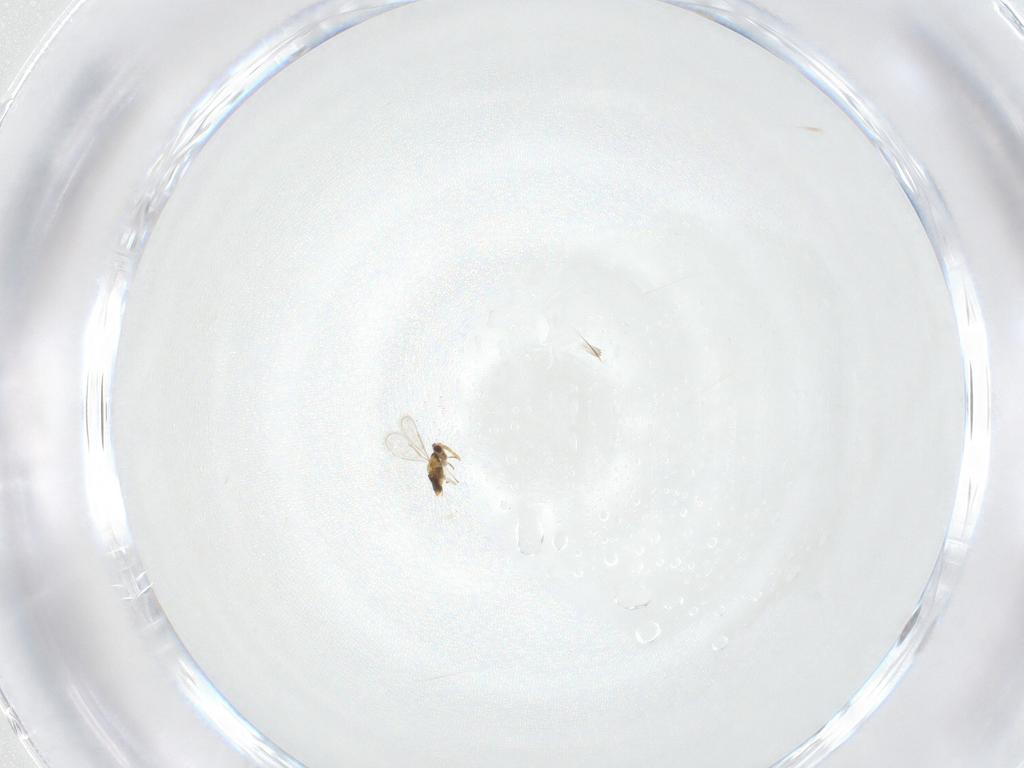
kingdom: Animalia
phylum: Arthropoda
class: Insecta
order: Hymenoptera
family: Aphelinidae
